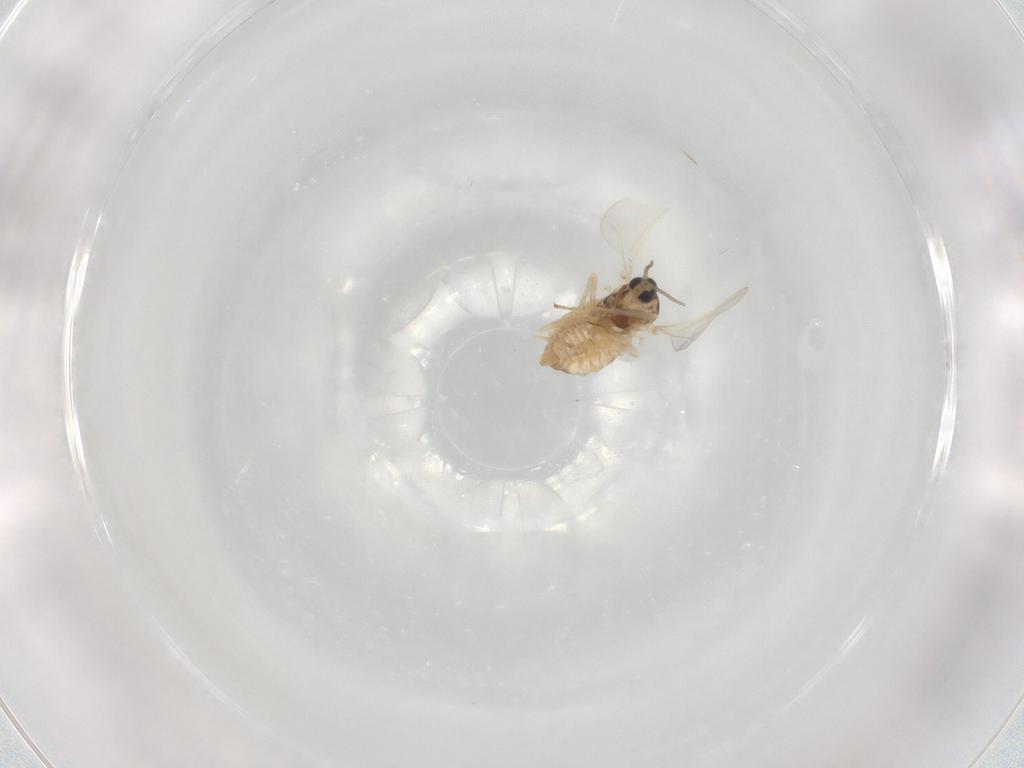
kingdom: Animalia
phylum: Arthropoda
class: Insecta
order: Diptera
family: Cecidomyiidae
